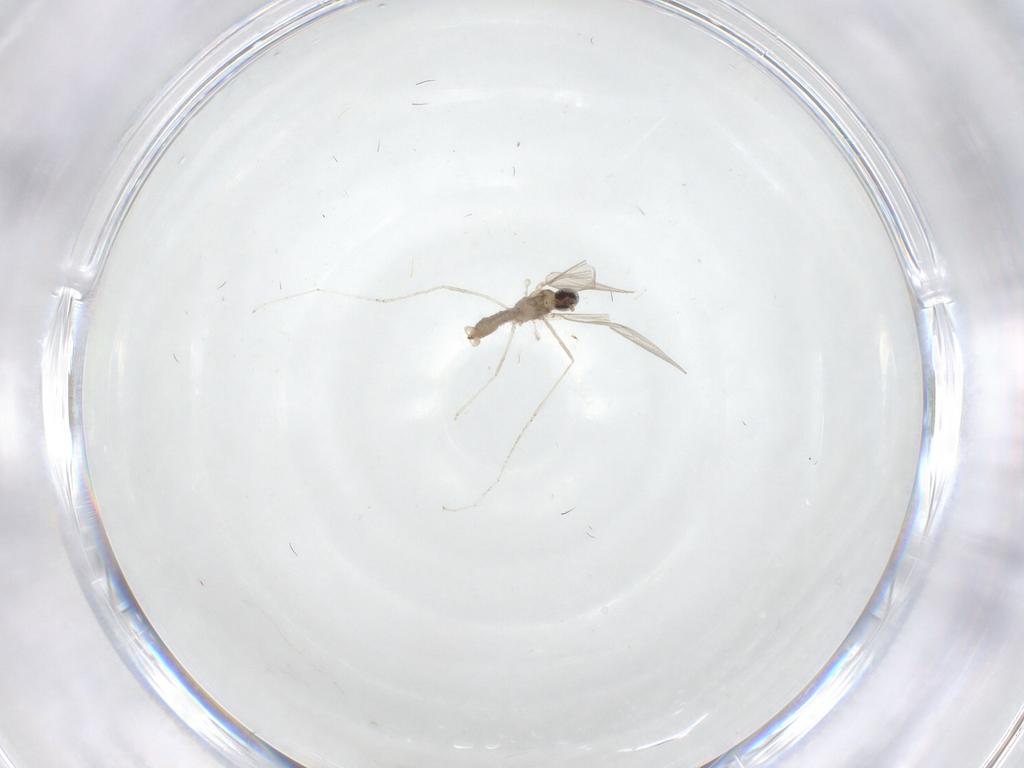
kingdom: Animalia
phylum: Arthropoda
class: Insecta
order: Diptera
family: Cecidomyiidae
